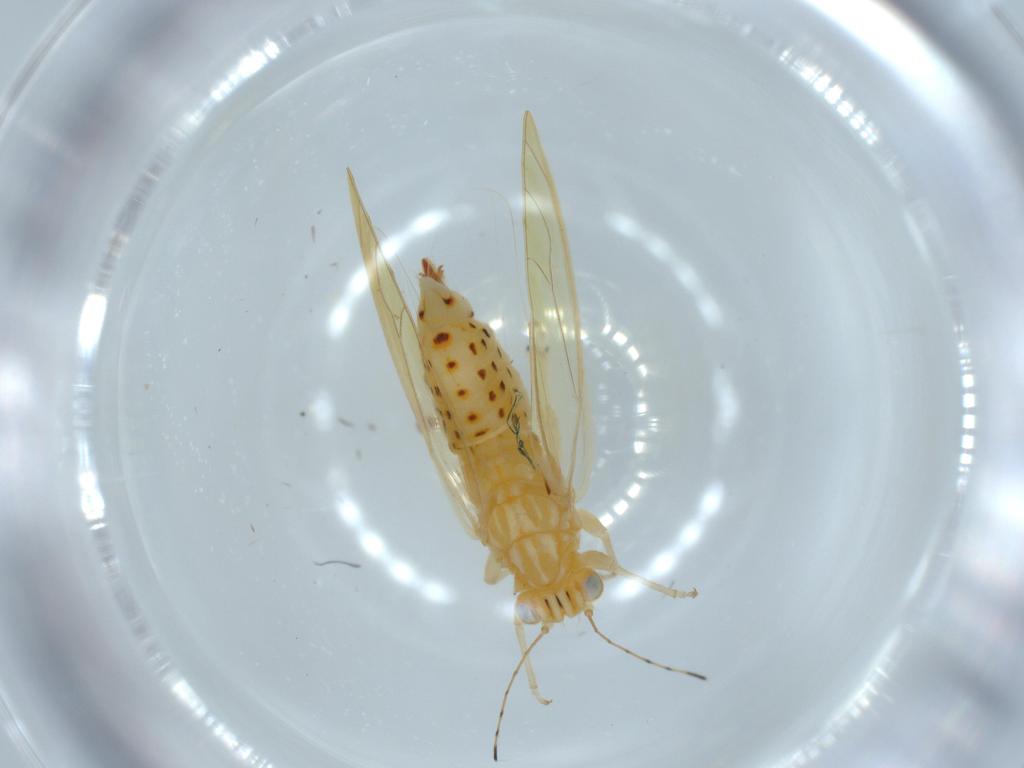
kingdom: Animalia
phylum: Arthropoda
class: Insecta
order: Hemiptera
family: Triozidae
